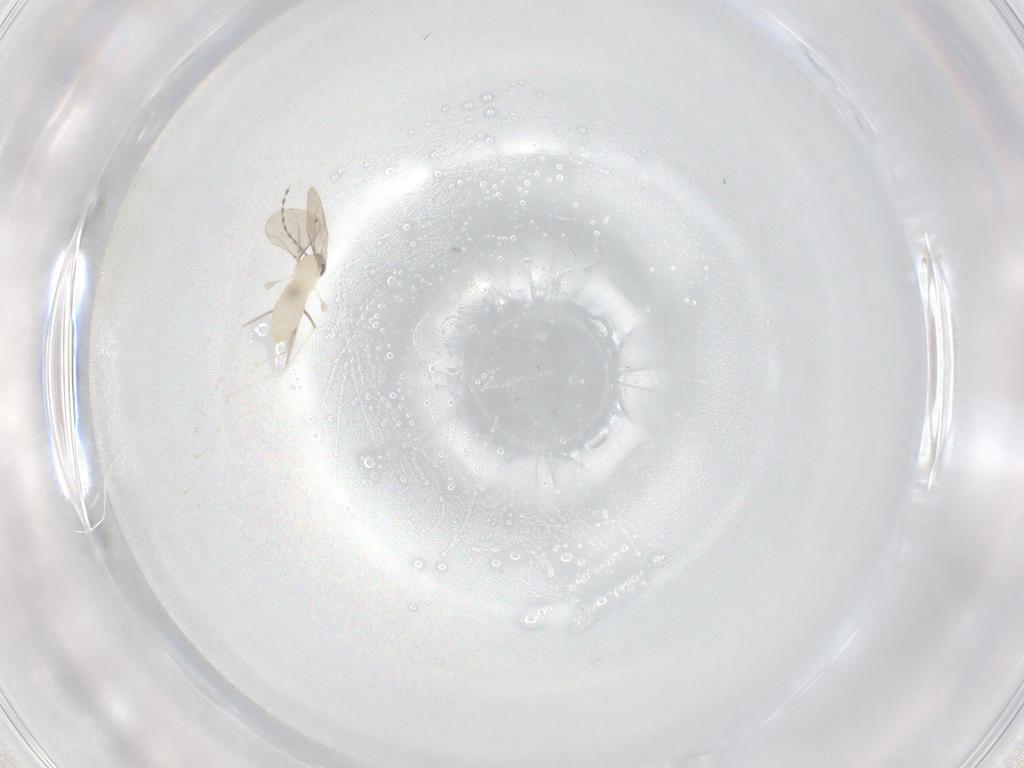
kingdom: Animalia
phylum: Arthropoda
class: Insecta
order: Diptera
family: Cecidomyiidae
